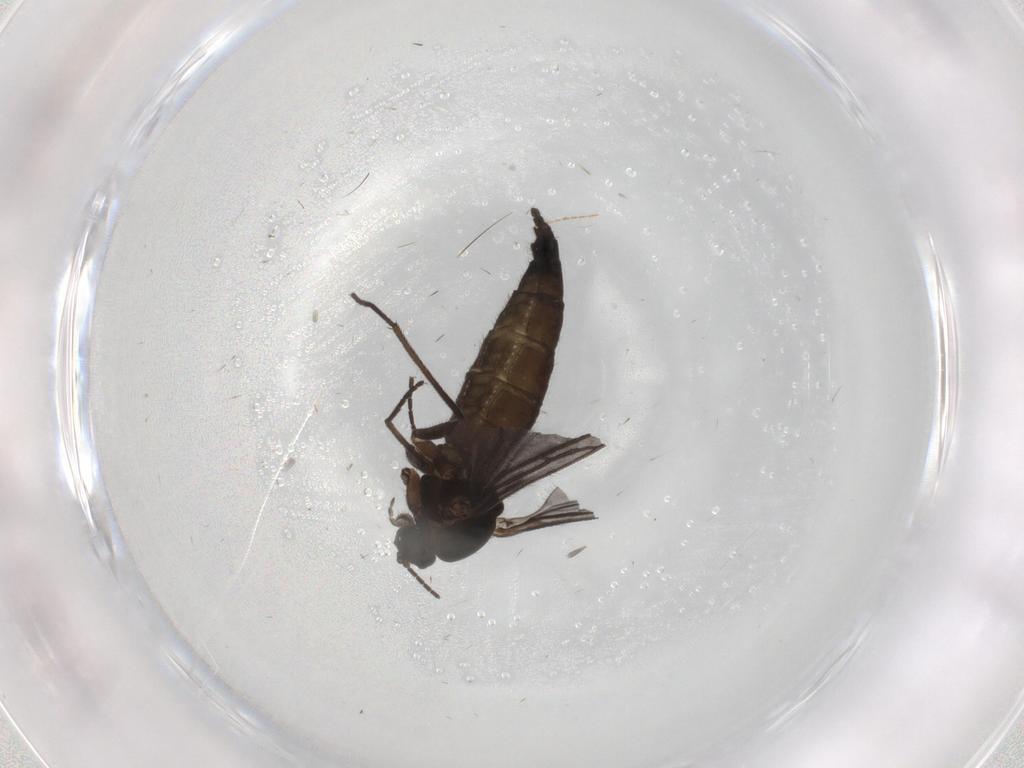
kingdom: Animalia
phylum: Arthropoda
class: Insecta
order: Diptera
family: Sciaridae
